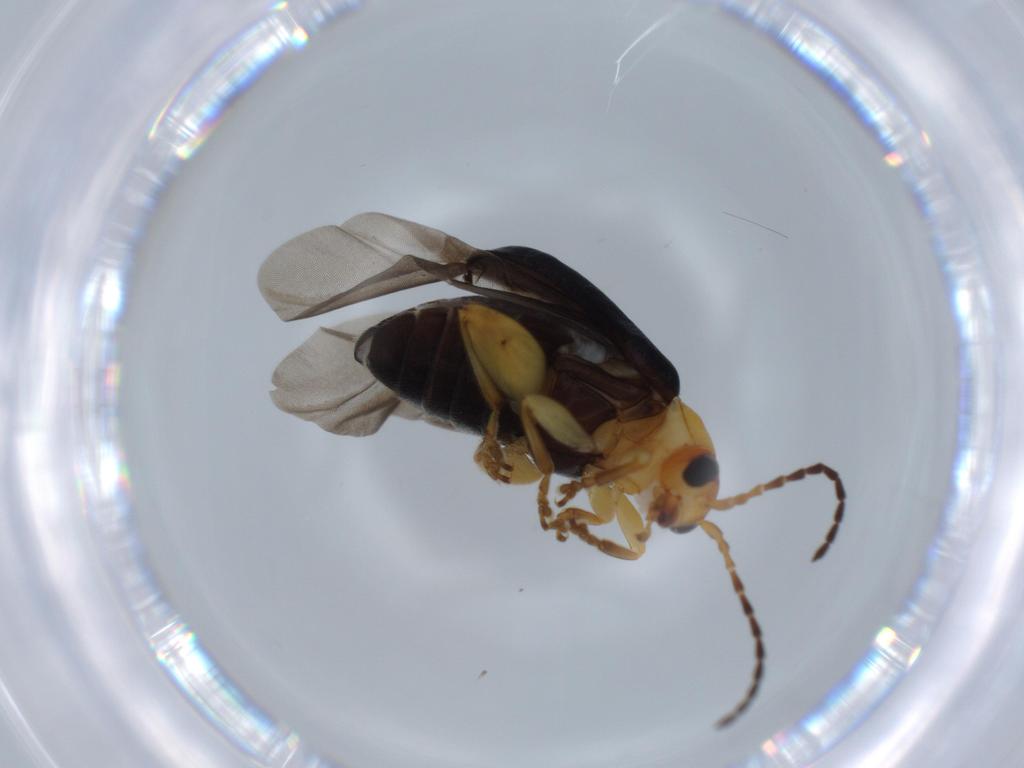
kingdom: Animalia
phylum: Arthropoda
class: Insecta
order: Coleoptera
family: Chrysomelidae
